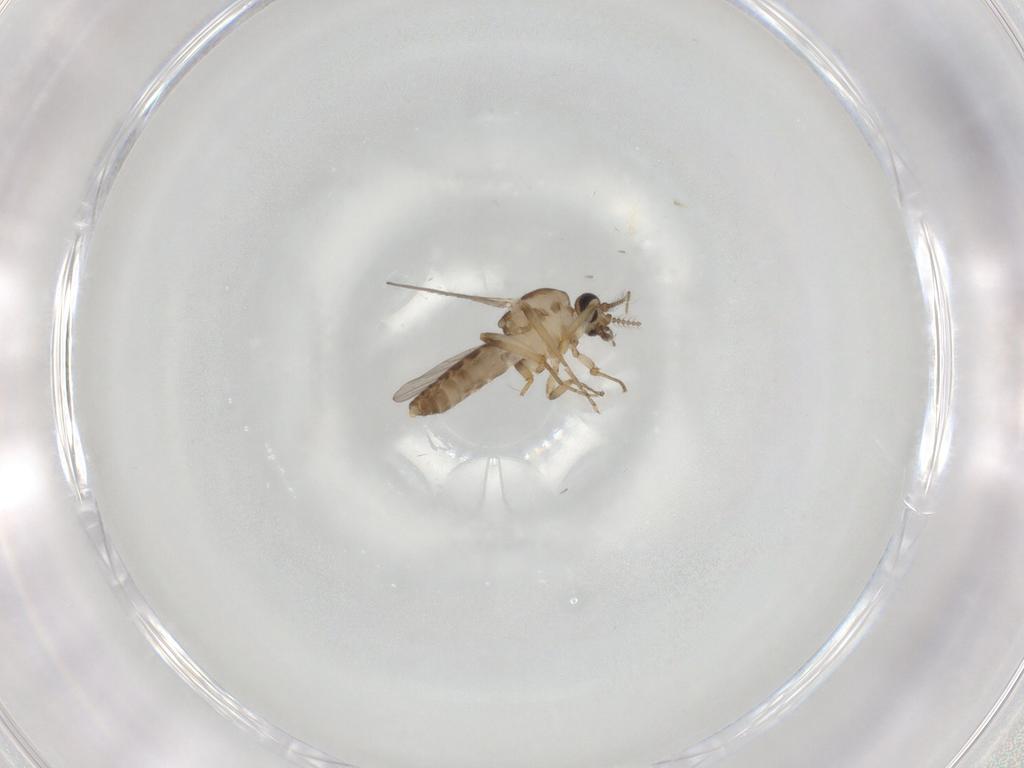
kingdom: Animalia
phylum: Arthropoda
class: Insecta
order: Diptera
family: Ceratopogonidae
